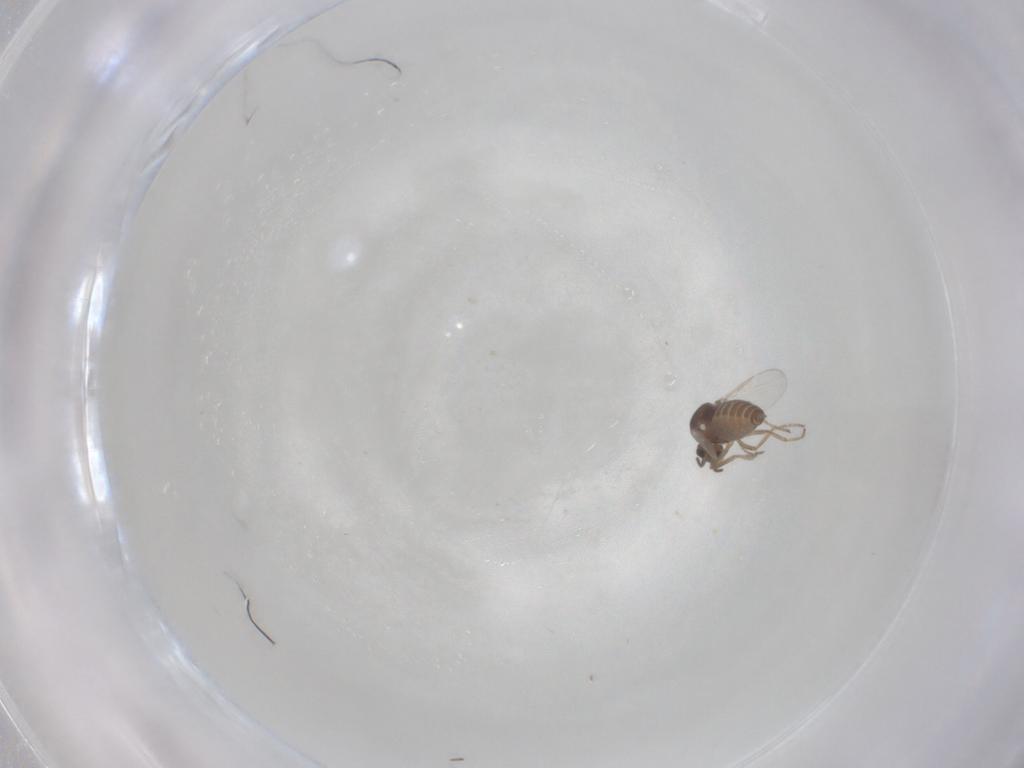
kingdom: Animalia
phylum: Arthropoda
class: Insecta
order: Diptera
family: Ceratopogonidae
